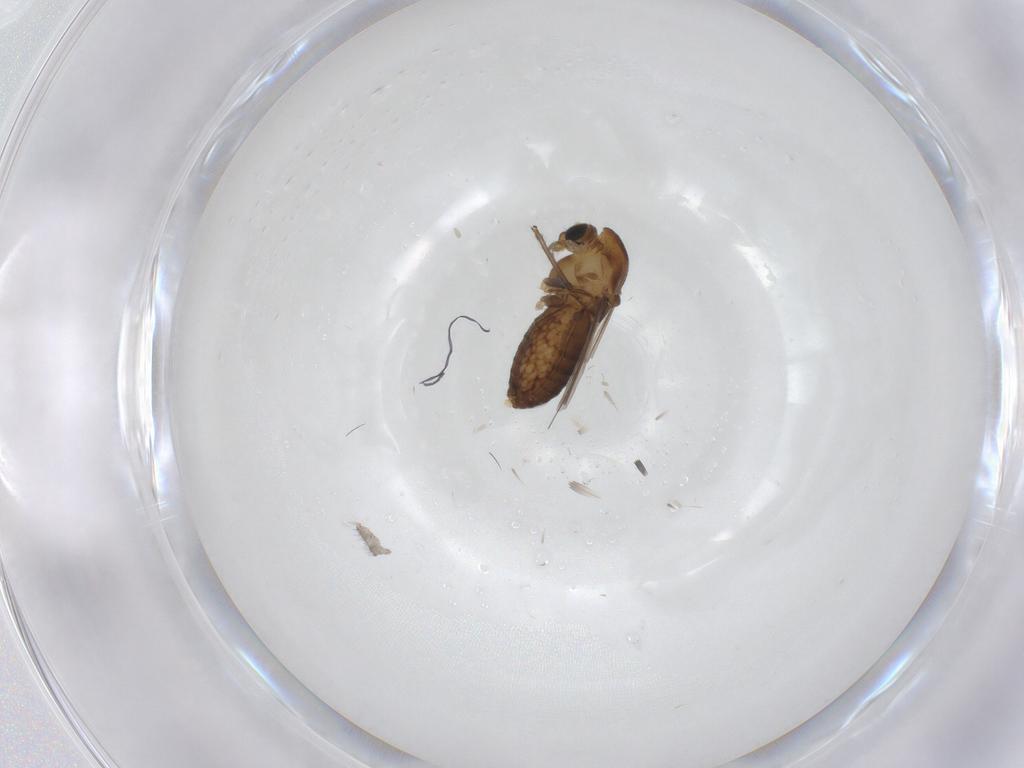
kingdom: Animalia
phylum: Arthropoda
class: Insecta
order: Diptera
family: Chironomidae
